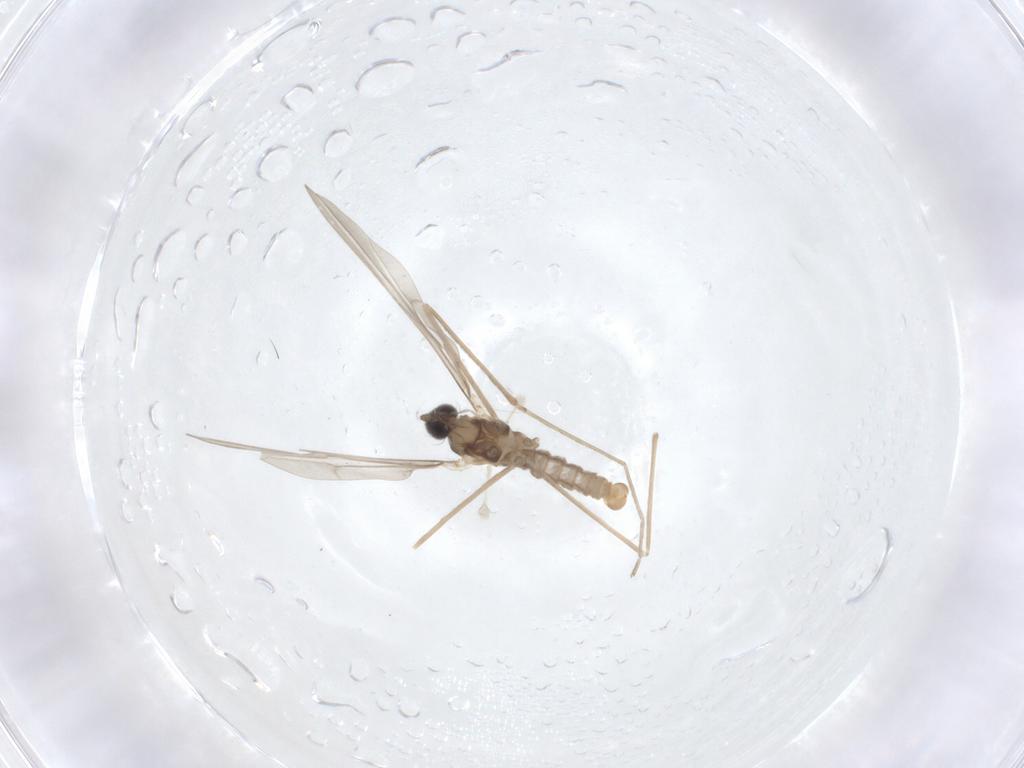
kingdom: Animalia
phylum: Arthropoda
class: Insecta
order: Diptera
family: Cecidomyiidae
